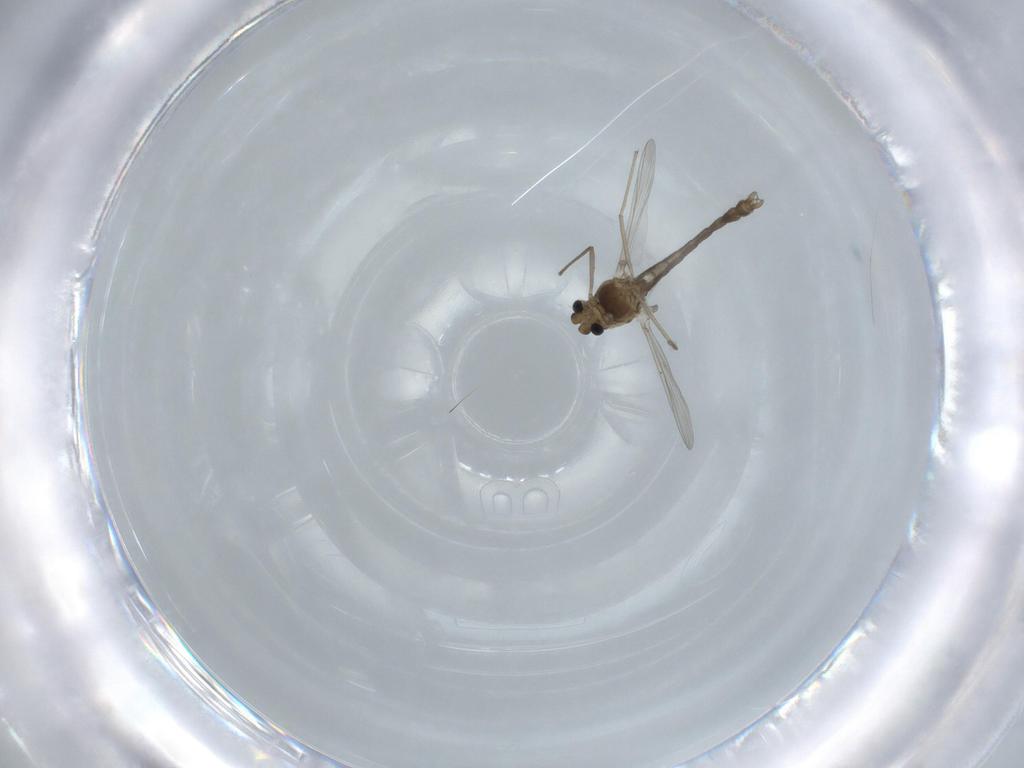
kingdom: Animalia
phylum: Arthropoda
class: Insecta
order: Diptera
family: Chironomidae
